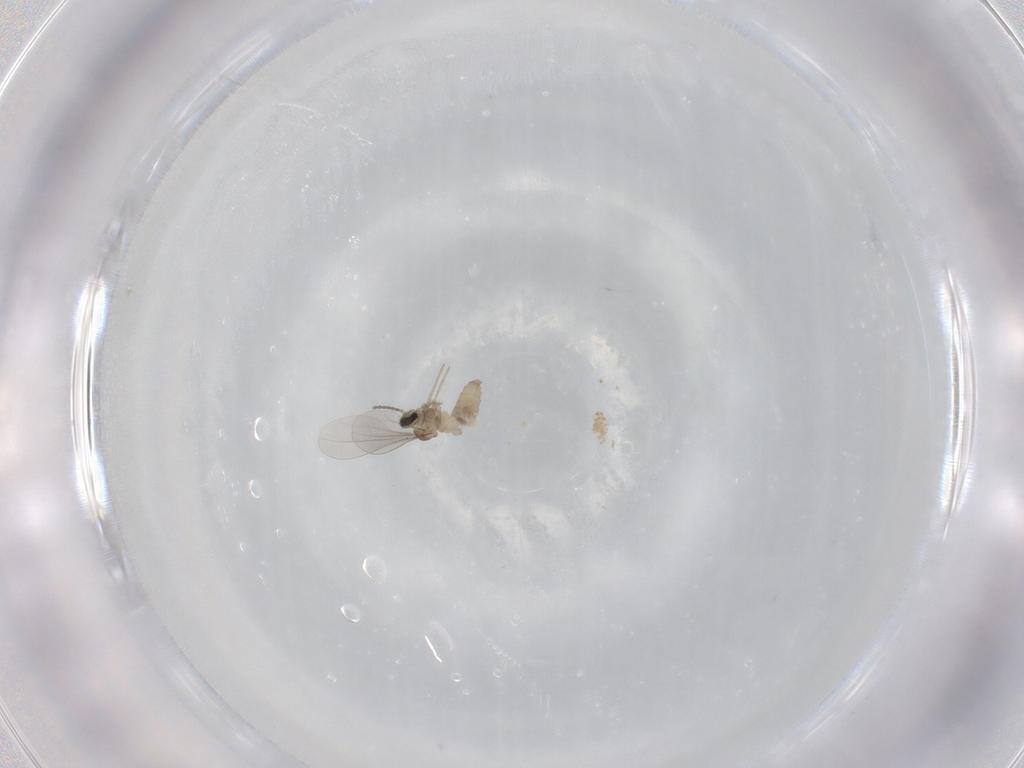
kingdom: Animalia
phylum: Arthropoda
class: Insecta
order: Diptera
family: Cecidomyiidae
